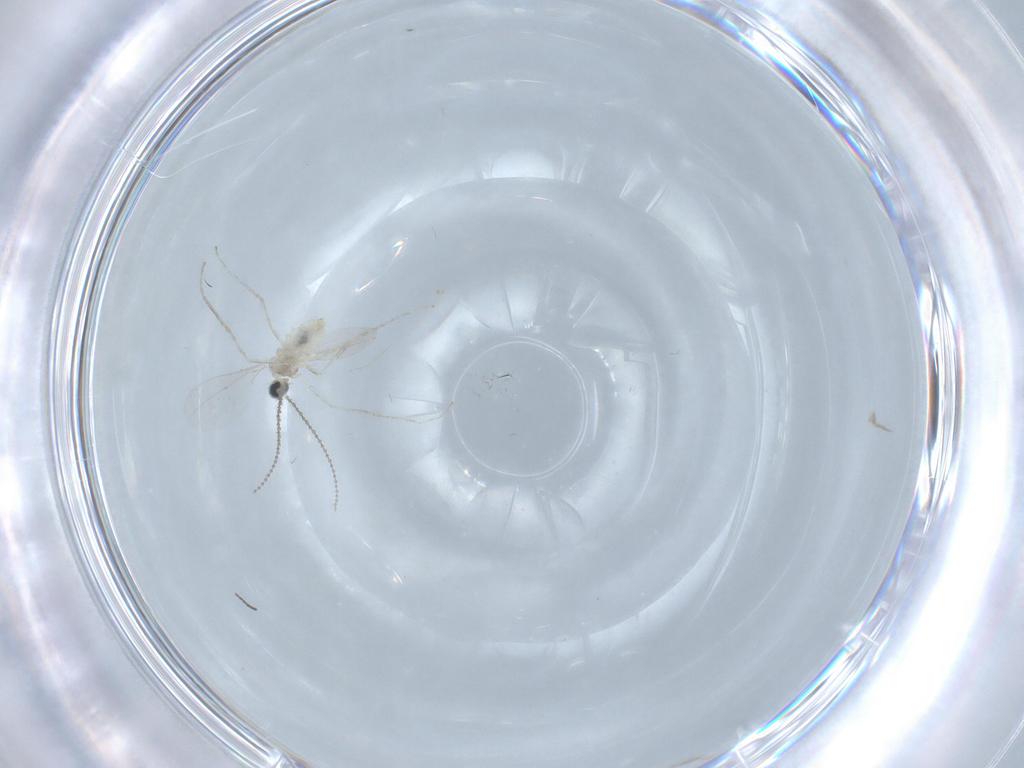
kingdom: Animalia
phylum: Arthropoda
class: Insecta
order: Diptera
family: Cecidomyiidae
